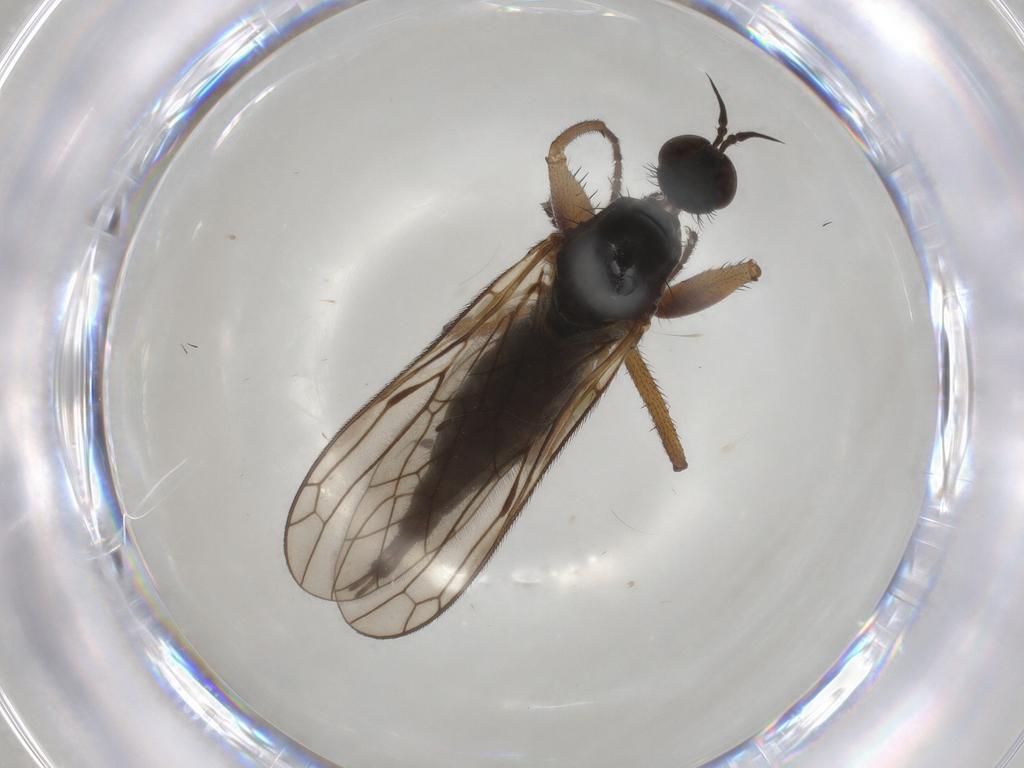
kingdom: Animalia
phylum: Arthropoda
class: Insecta
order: Diptera
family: Empididae
